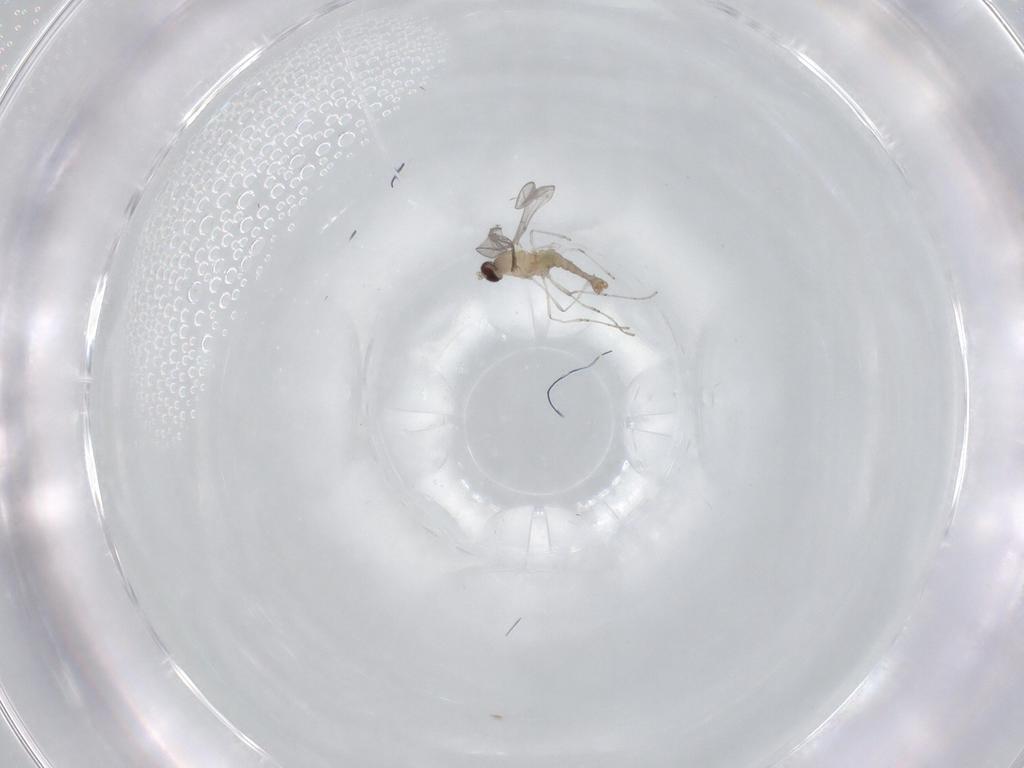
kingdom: Animalia
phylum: Arthropoda
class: Insecta
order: Diptera
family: Cecidomyiidae
